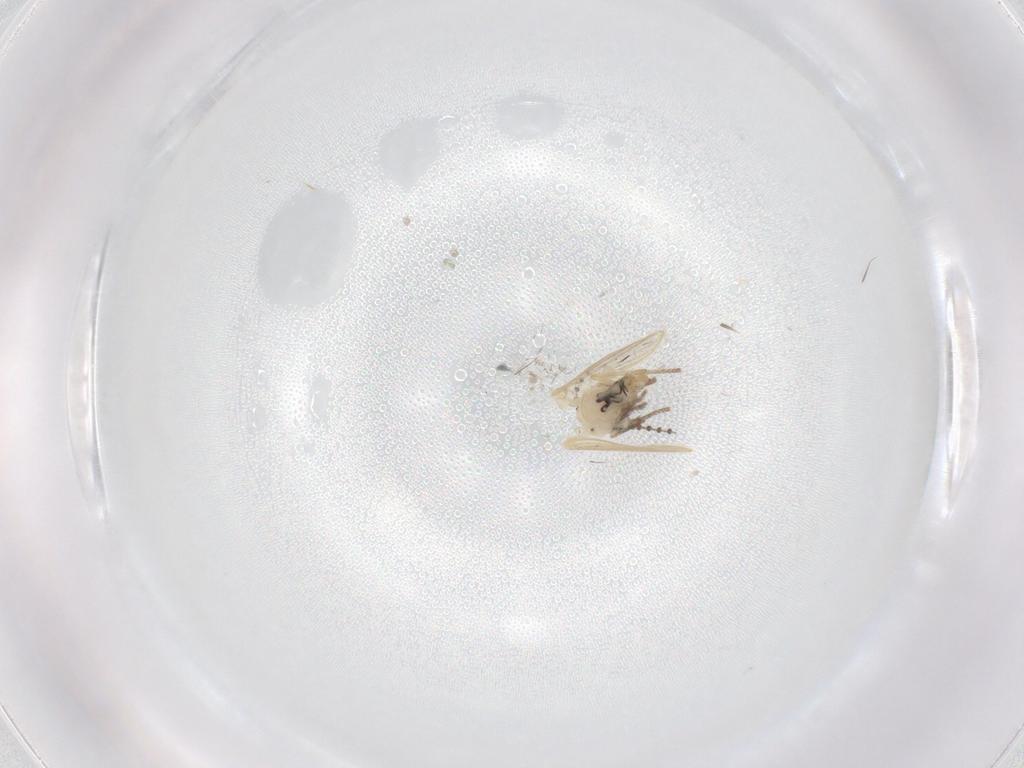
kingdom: Animalia
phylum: Arthropoda
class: Insecta
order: Diptera
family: Psychodidae
